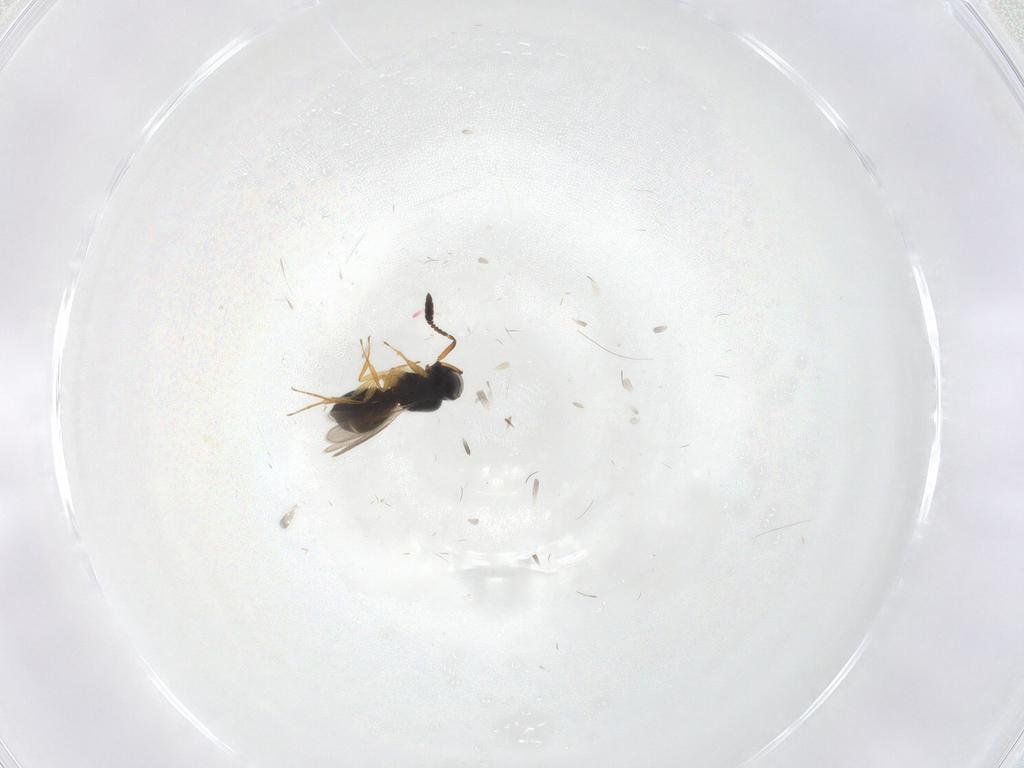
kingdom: Animalia
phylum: Arthropoda
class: Insecta
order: Hymenoptera
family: Scelionidae
